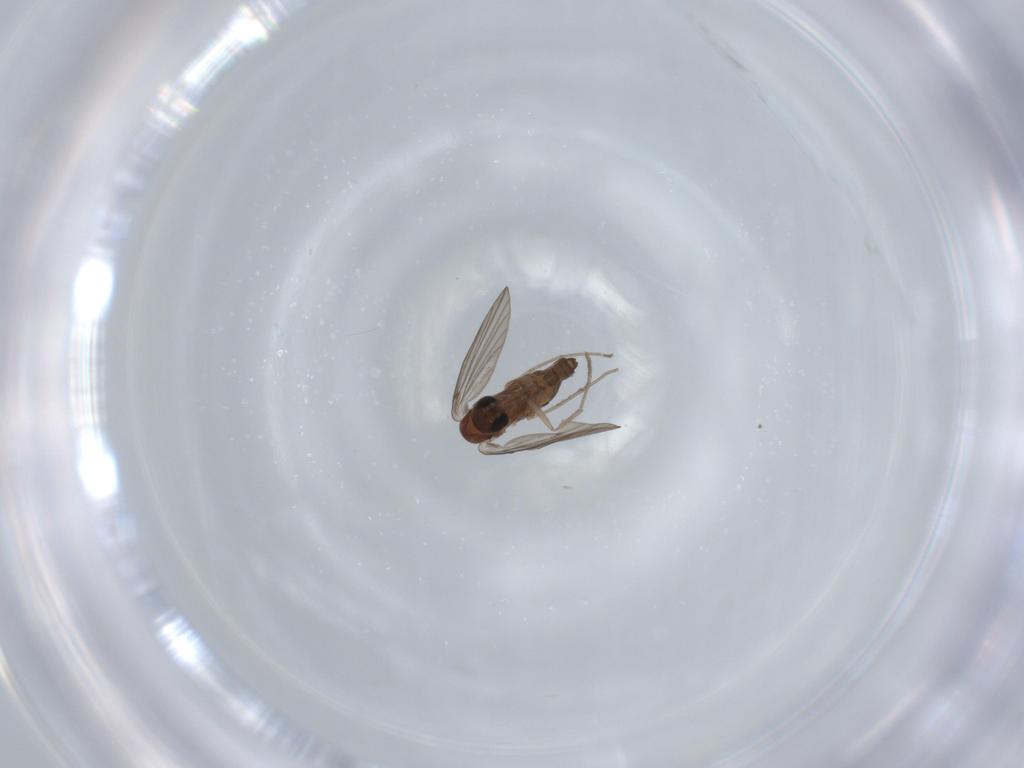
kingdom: Animalia
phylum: Arthropoda
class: Insecta
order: Diptera
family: Psychodidae
